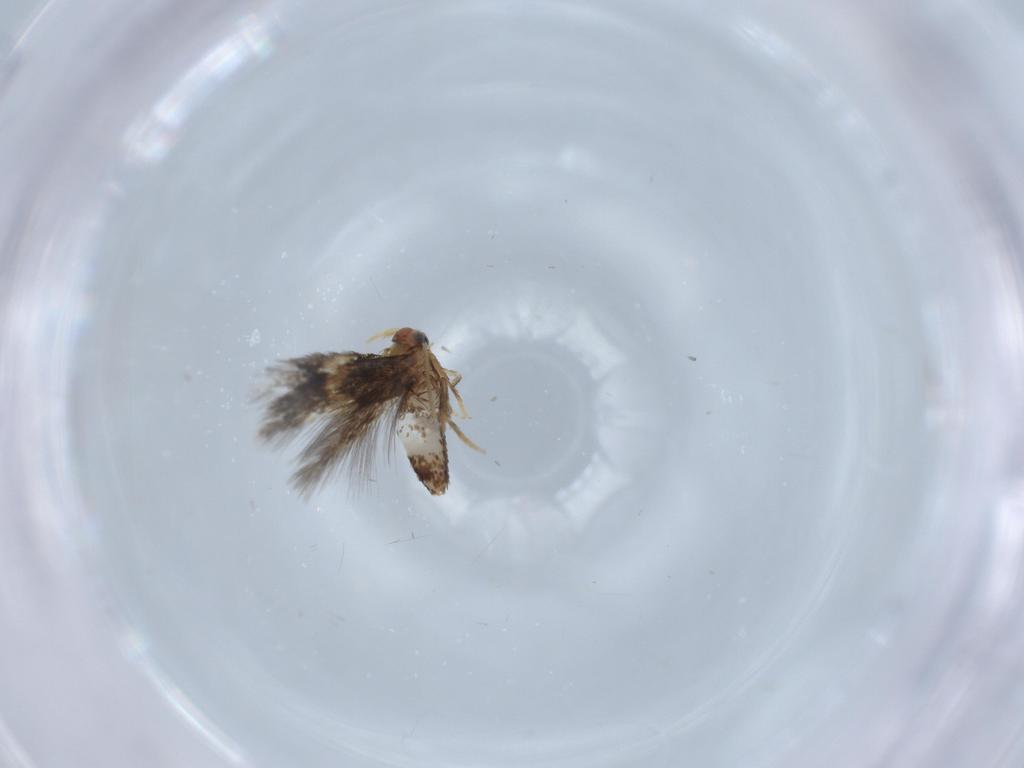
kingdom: Animalia
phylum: Arthropoda
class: Insecta
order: Lepidoptera
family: Nepticulidae
